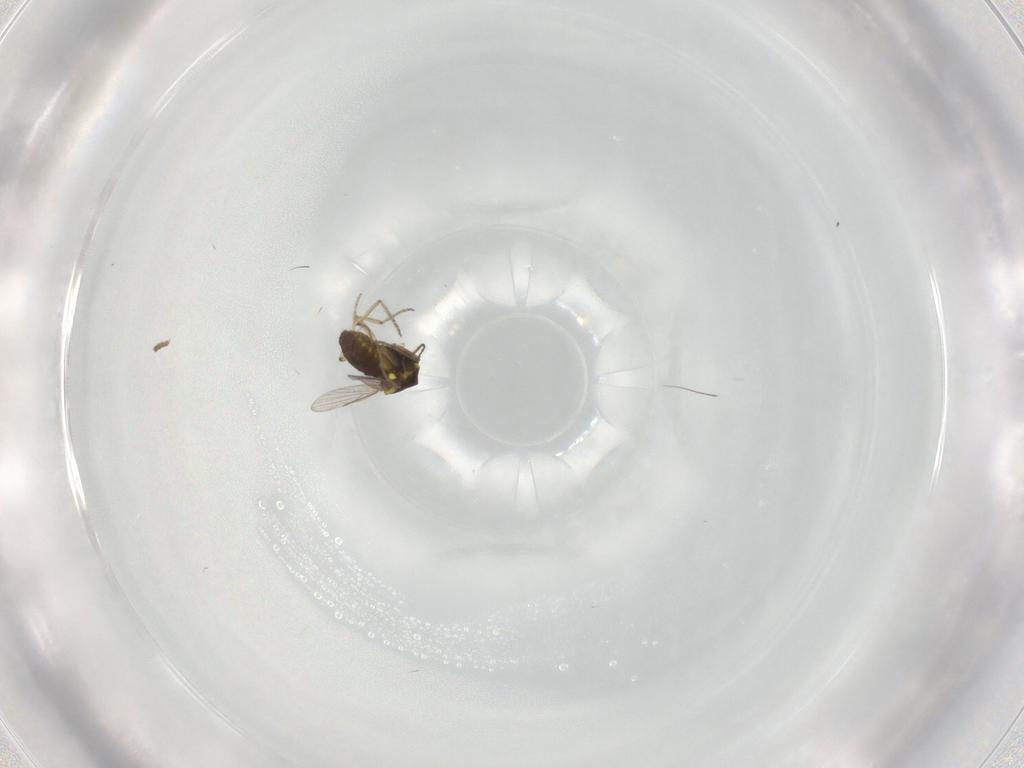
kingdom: Animalia
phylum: Arthropoda
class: Insecta
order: Diptera
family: Ceratopogonidae
